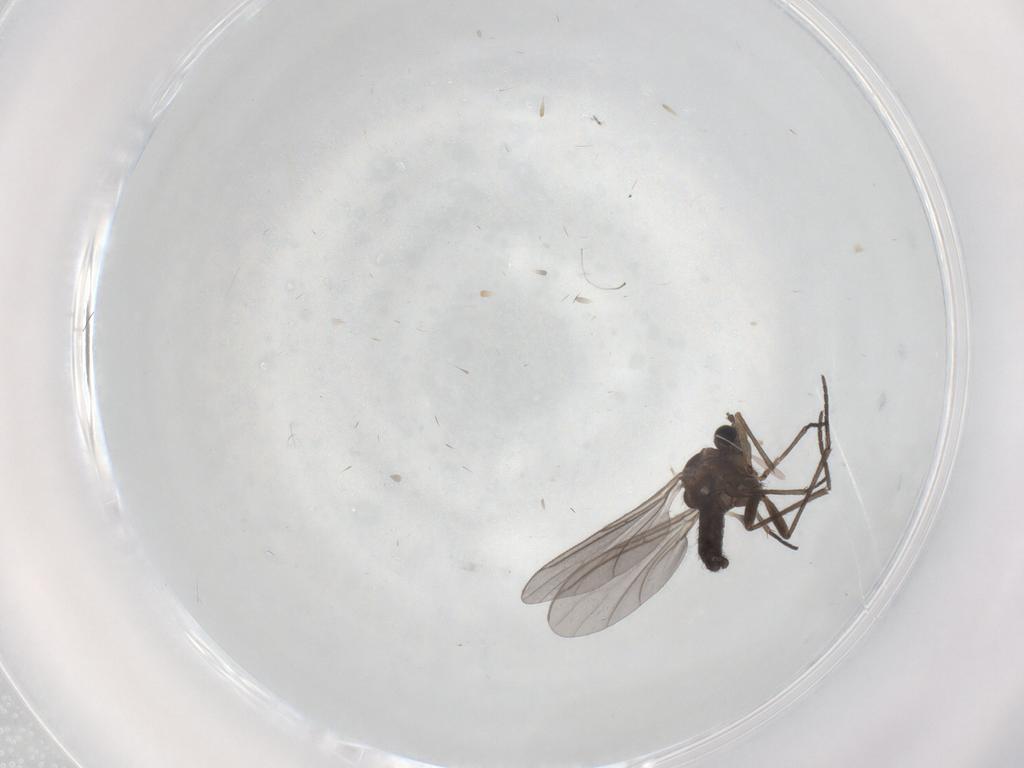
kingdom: Animalia
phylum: Arthropoda
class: Insecta
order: Diptera
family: Sciaridae
